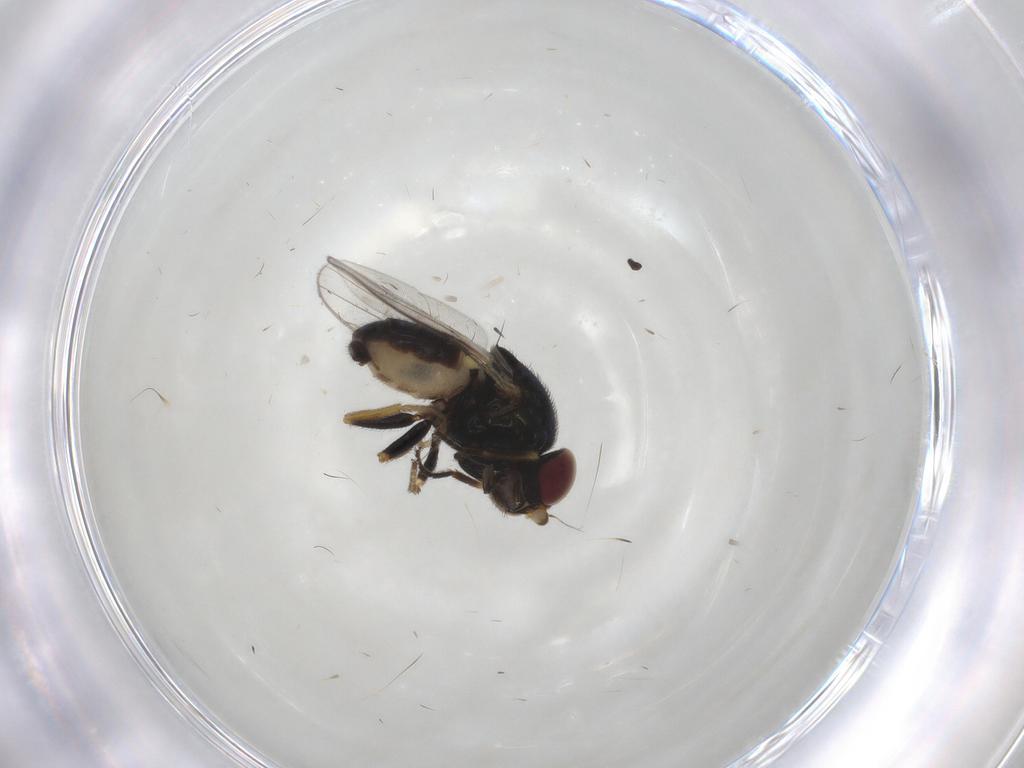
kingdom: Animalia
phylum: Arthropoda
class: Insecta
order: Diptera
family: Chloropidae
